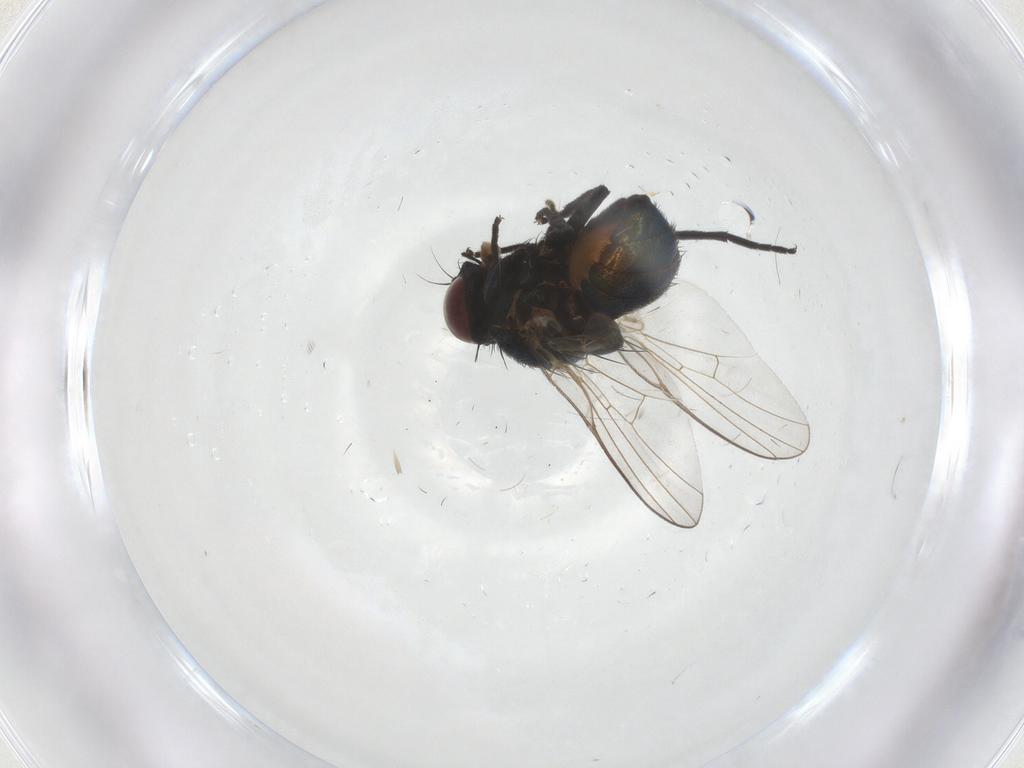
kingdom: Animalia
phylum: Arthropoda
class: Insecta
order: Diptera
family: Agromyzidae
